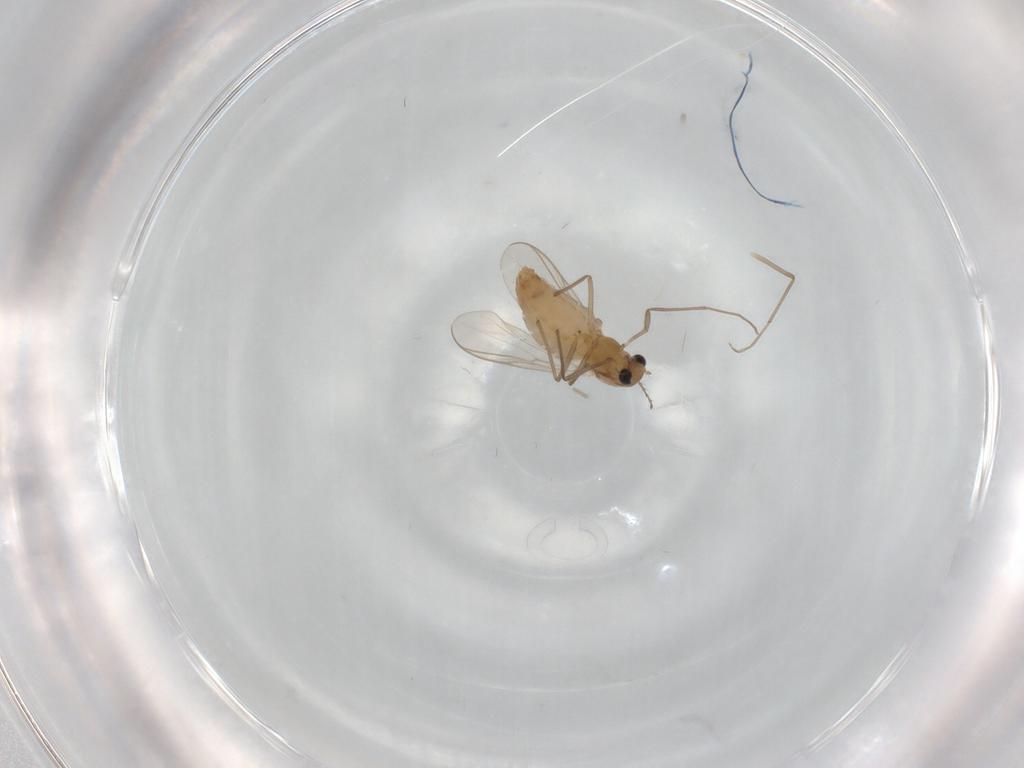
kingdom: Animalia
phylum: Arthropoda
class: Insecta
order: Diptera
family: Chironomidae
